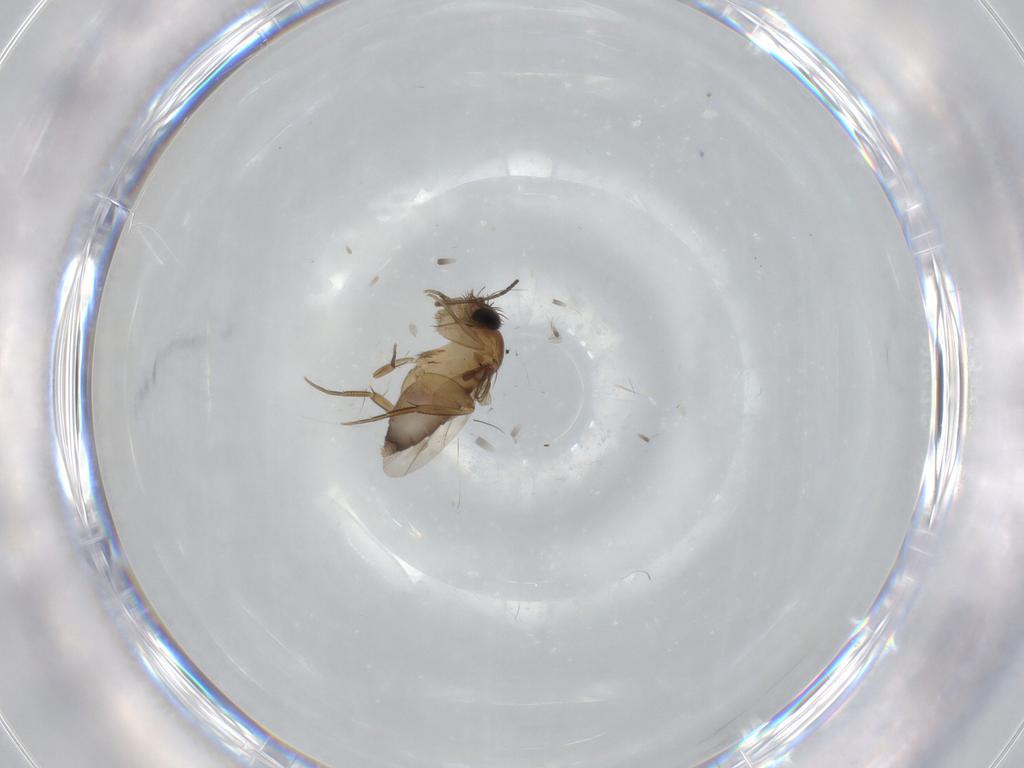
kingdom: Animalia
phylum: Arthropoda
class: Insecta
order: Diptera
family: Phoridae
